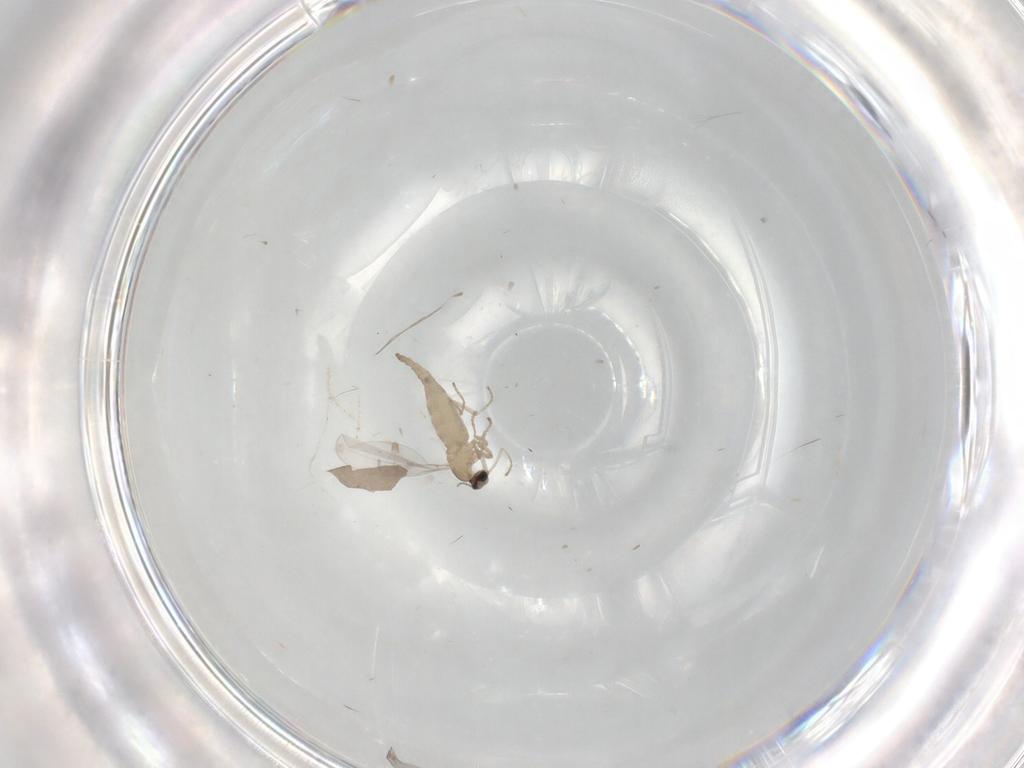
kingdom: Animalia
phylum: Arthropoda
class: Insecta
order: Diptera
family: Cecidomyiidae
